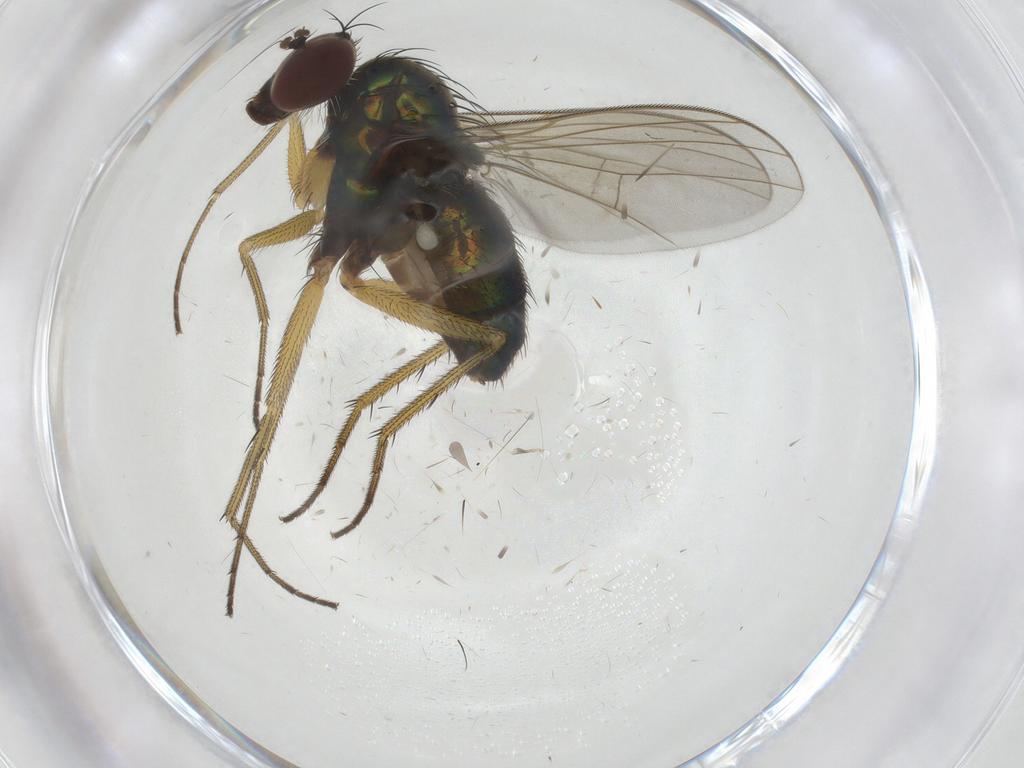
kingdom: Animalia
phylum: Arthropoda
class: Insecta
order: Diptera
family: Dolichopodidae
